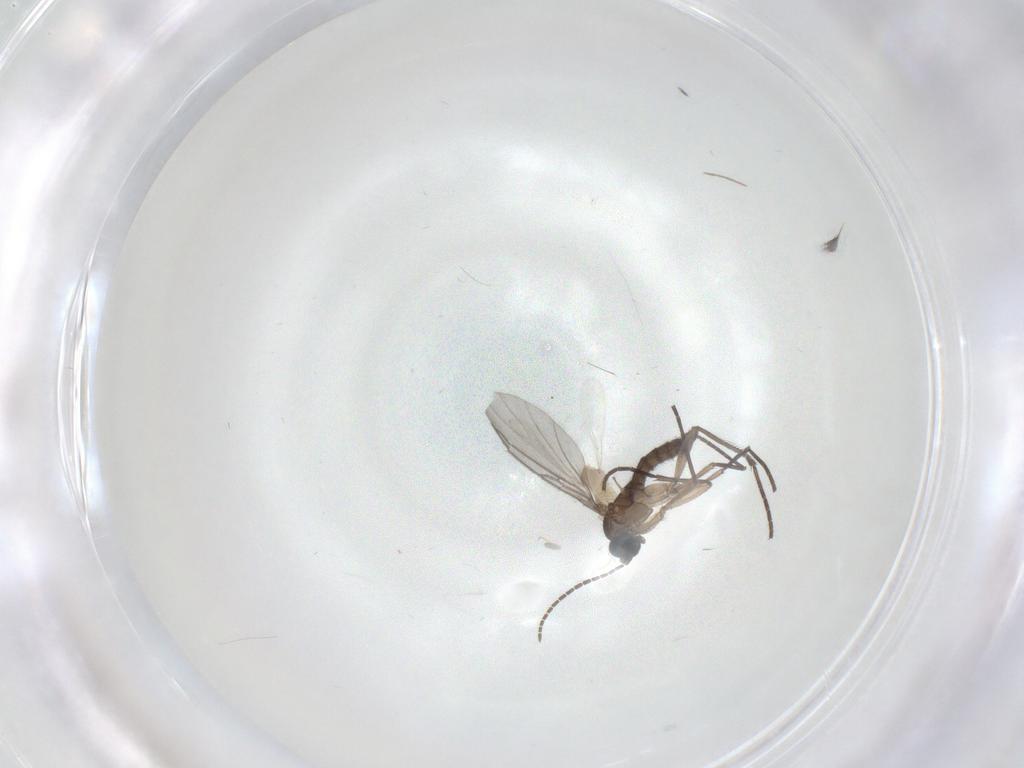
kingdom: Animalia
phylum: Arthropoda
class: Insecta
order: Diptera
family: Sciaridae
